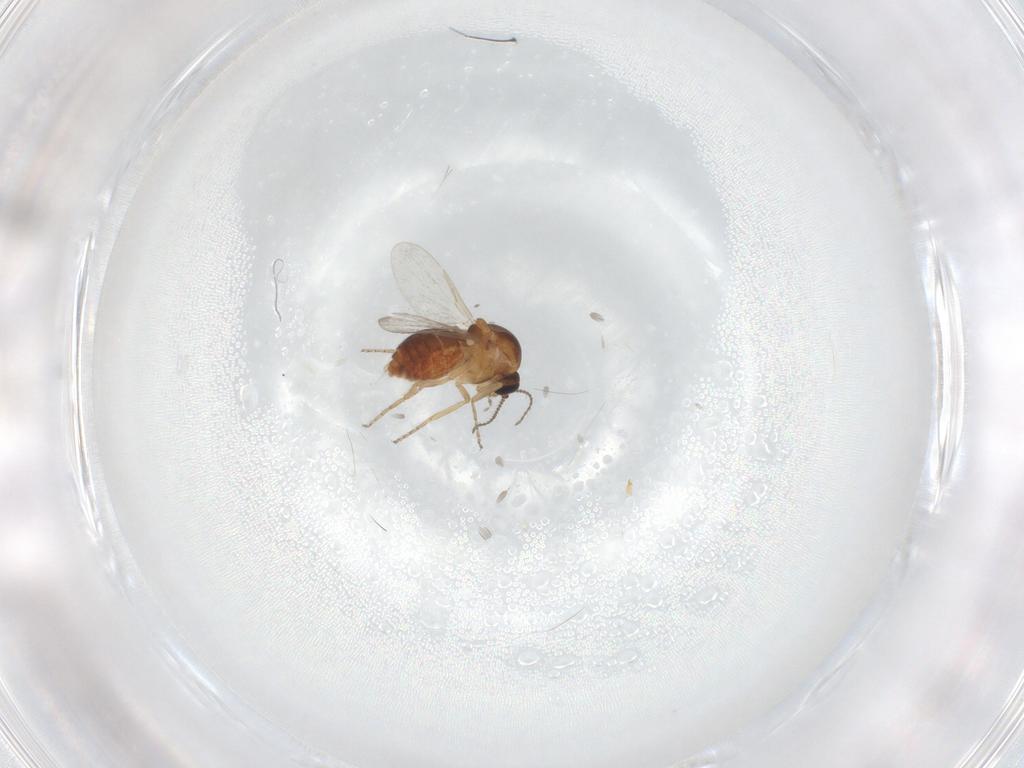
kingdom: Animalia
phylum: Arthropoda
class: Insecta
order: Diptera
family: Ceratopogonidae
